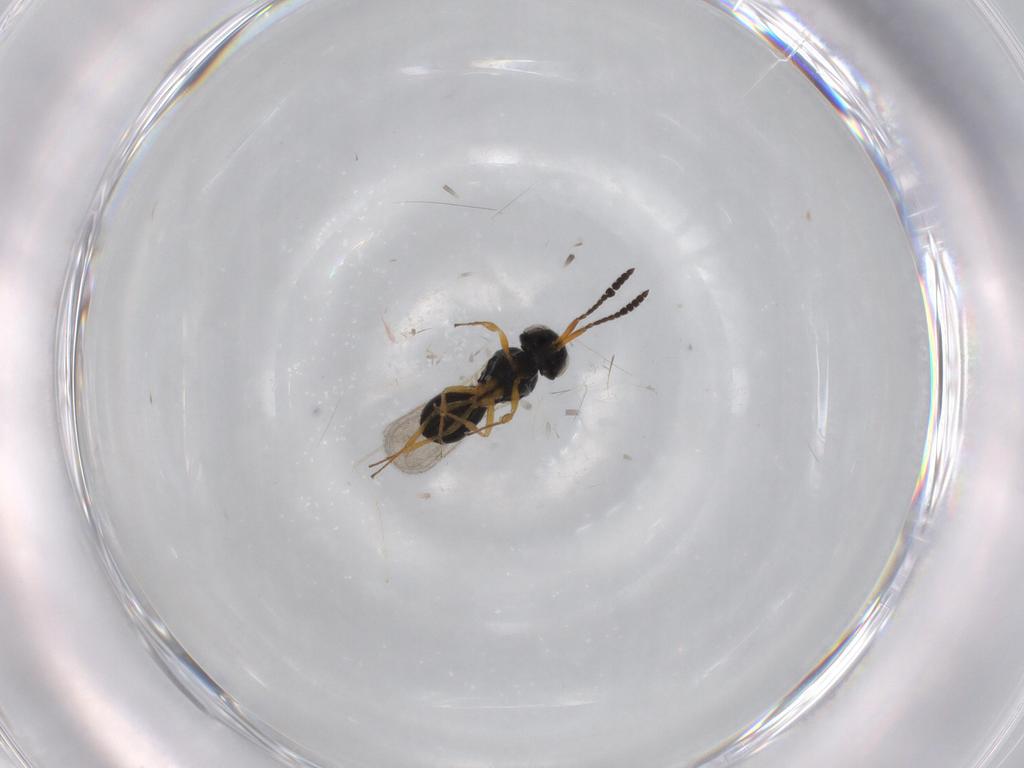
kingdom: Animalia
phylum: Arthropoda
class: Insecta
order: Hymenoptera
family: Scelionidae
